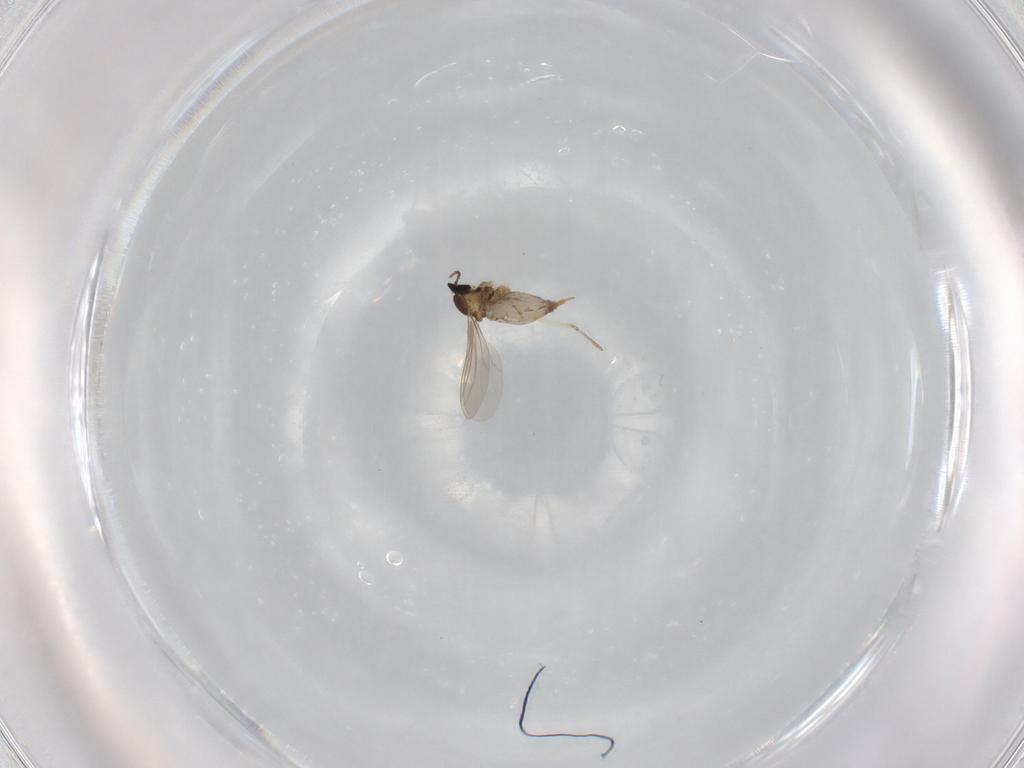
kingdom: Animalia
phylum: Arthropoda
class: Insecta
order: Diptera
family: Cecidomyiidae
